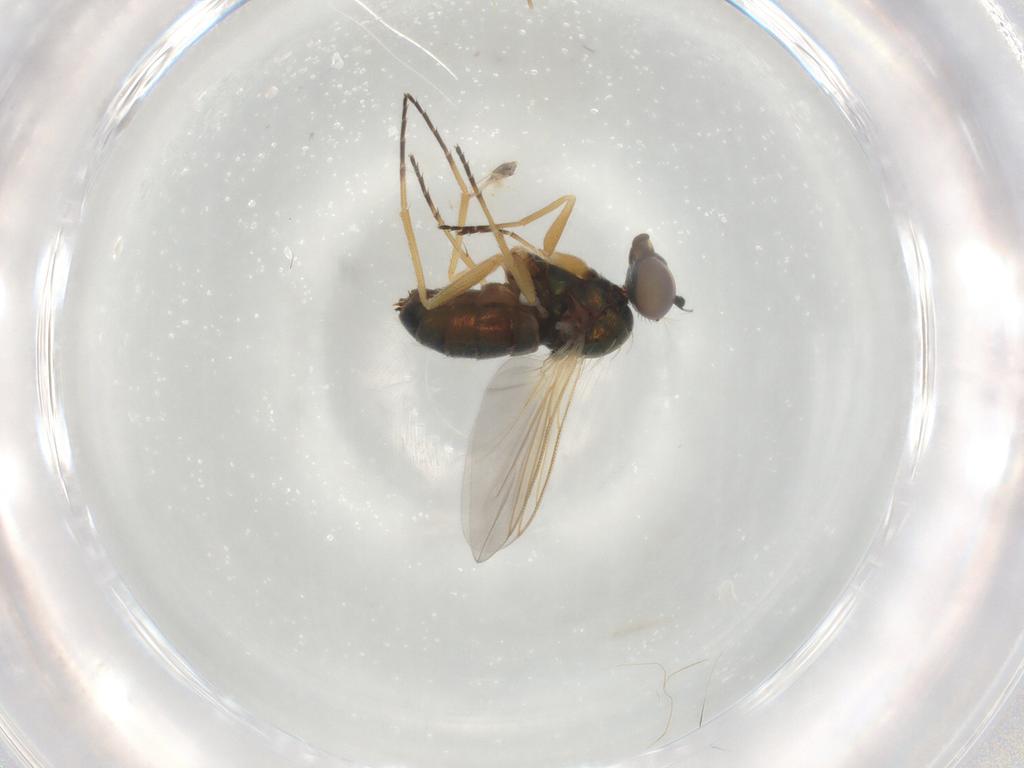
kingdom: Animalia
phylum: Arthropoda
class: Insecta
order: Diptera
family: Dolichopodidae
